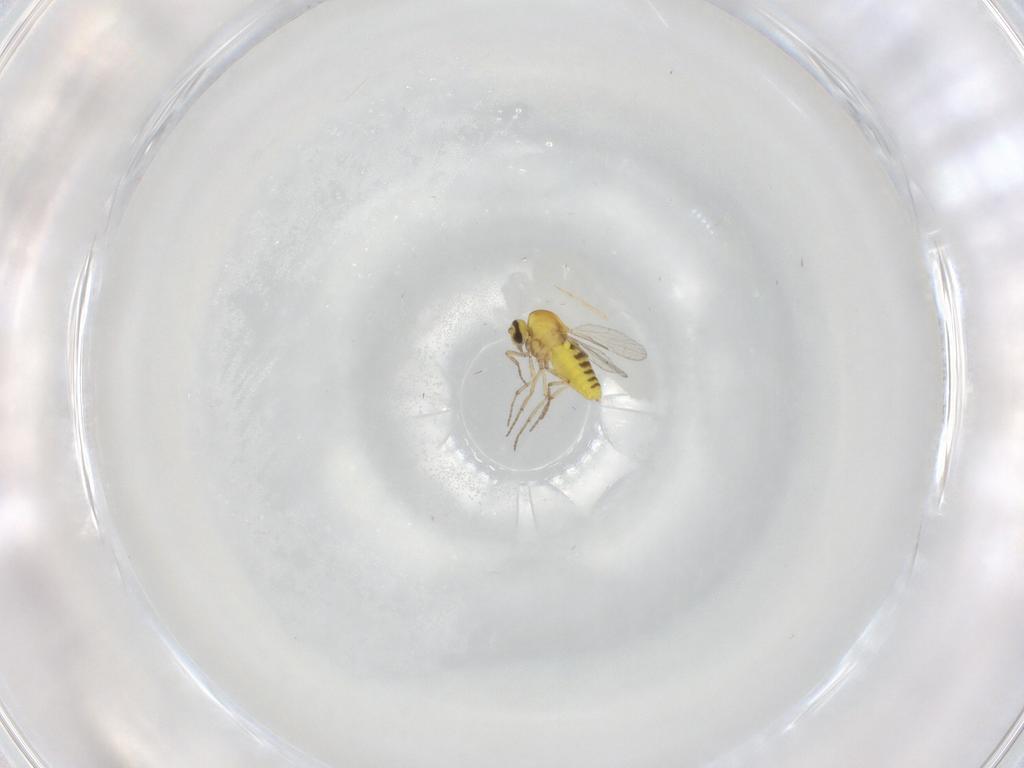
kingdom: Animalia
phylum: Arthropoda
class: Insecta
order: Diptera
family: Ceratopogonidae
